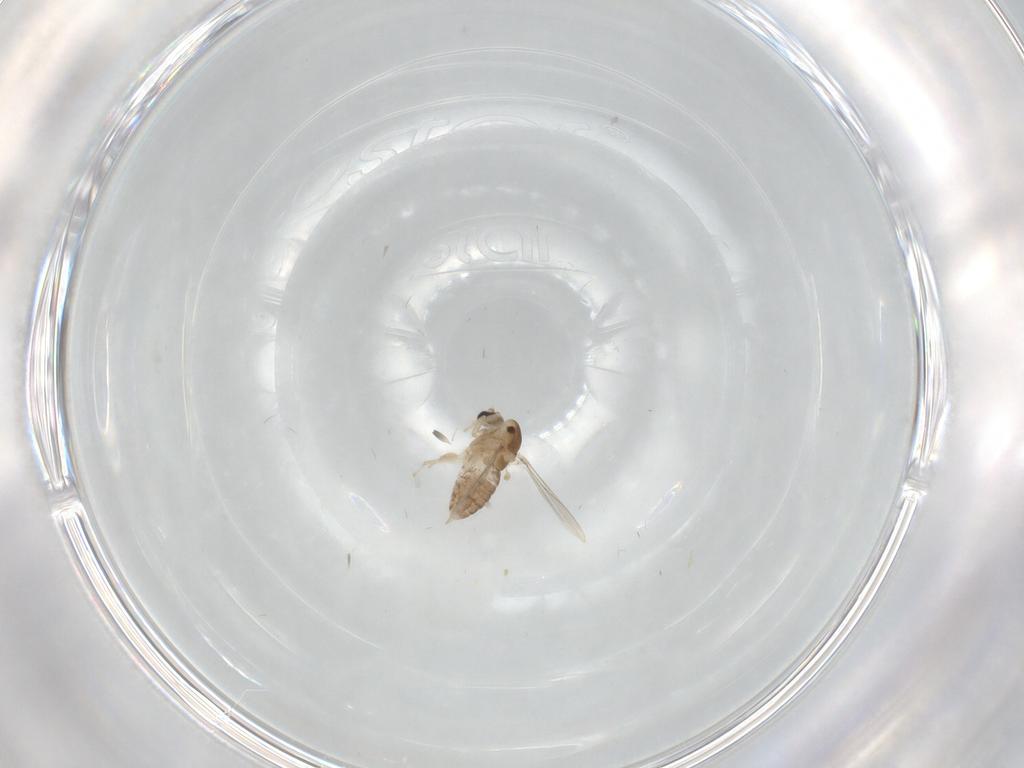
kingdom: Animalia
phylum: Arthropoda
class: Insecta
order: Diptera
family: Chironomidae
